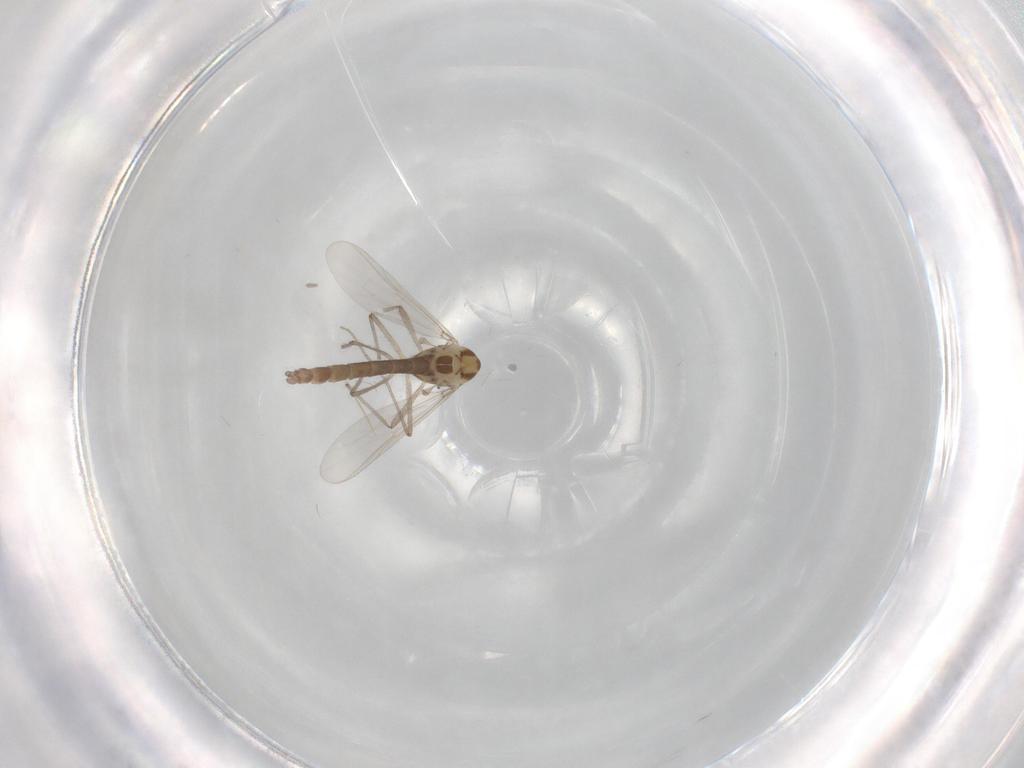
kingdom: Animalia
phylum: Arthropoda
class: Insecta
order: Diptera
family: Chironomidae
